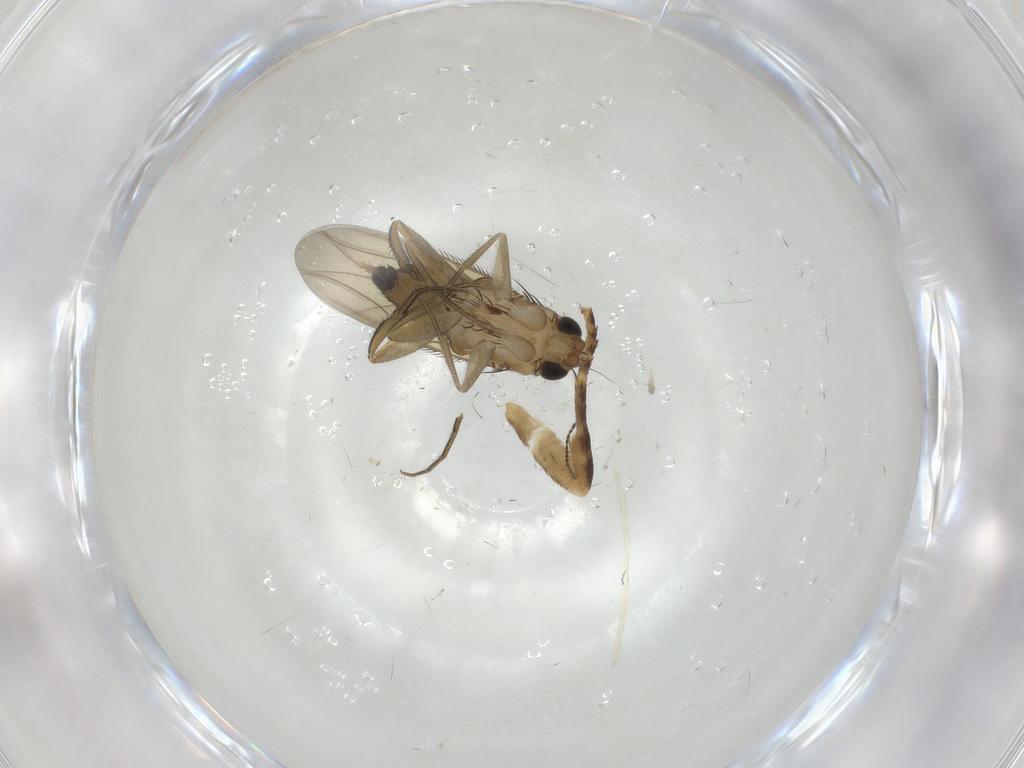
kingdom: Animalia
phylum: Arthropoda
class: Insecta
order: Diptera
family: Phoridae
